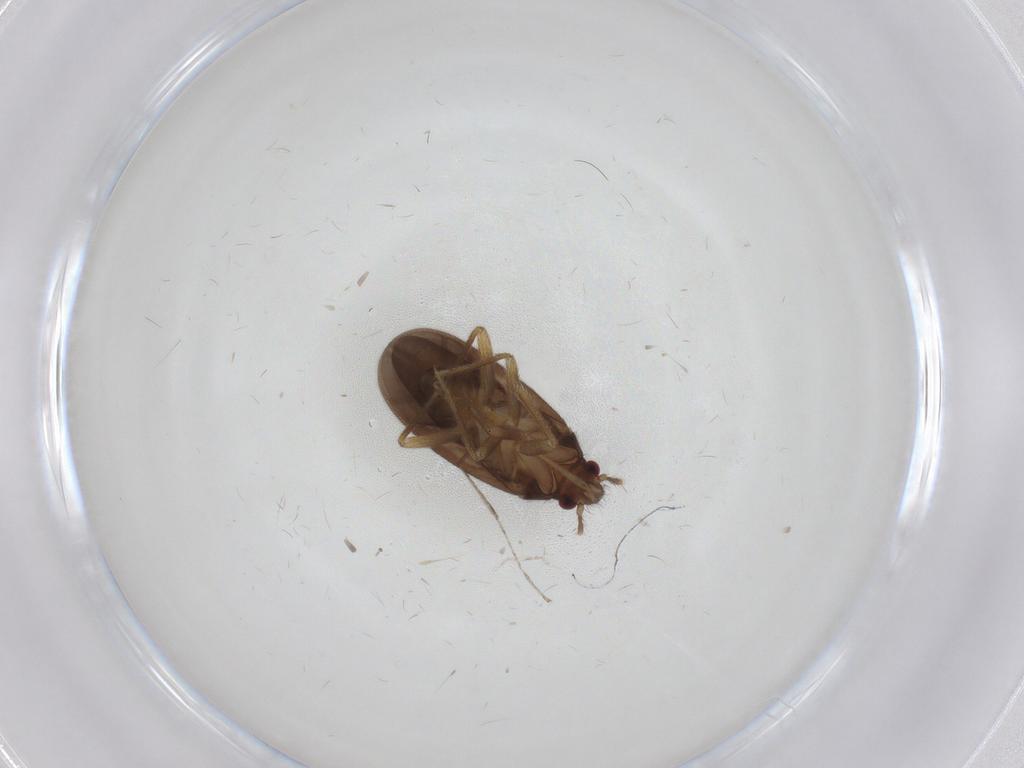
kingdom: Animalia
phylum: Arthropoda
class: Insecta
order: Hemiptera
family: Ceratocombidae
